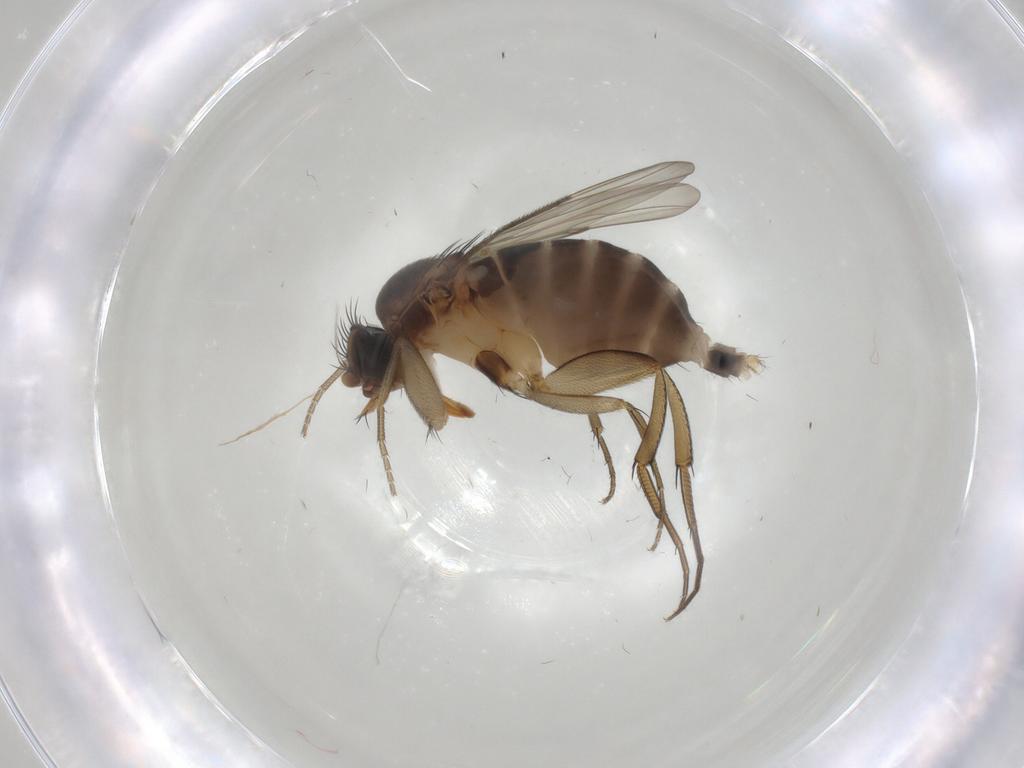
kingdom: Animalia
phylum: Arthropoda
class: Insecta
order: Diptera
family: Phoridae
